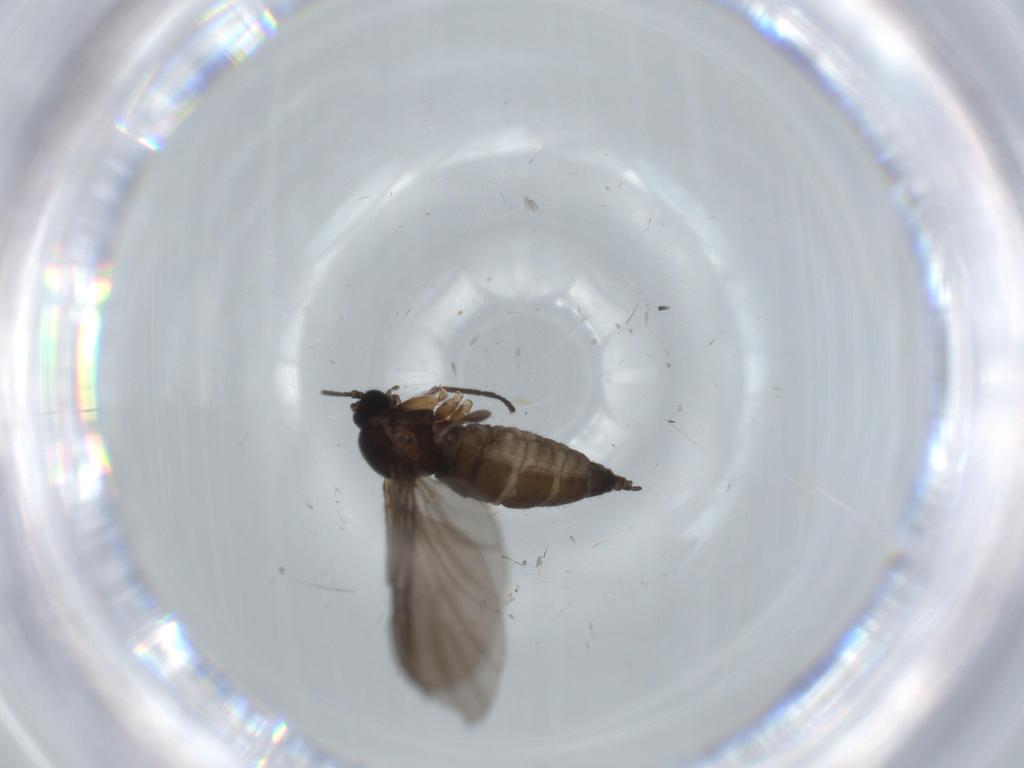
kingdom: Animalia
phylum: Arthropoda
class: Insecta
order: Diptera
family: Sciaridae
